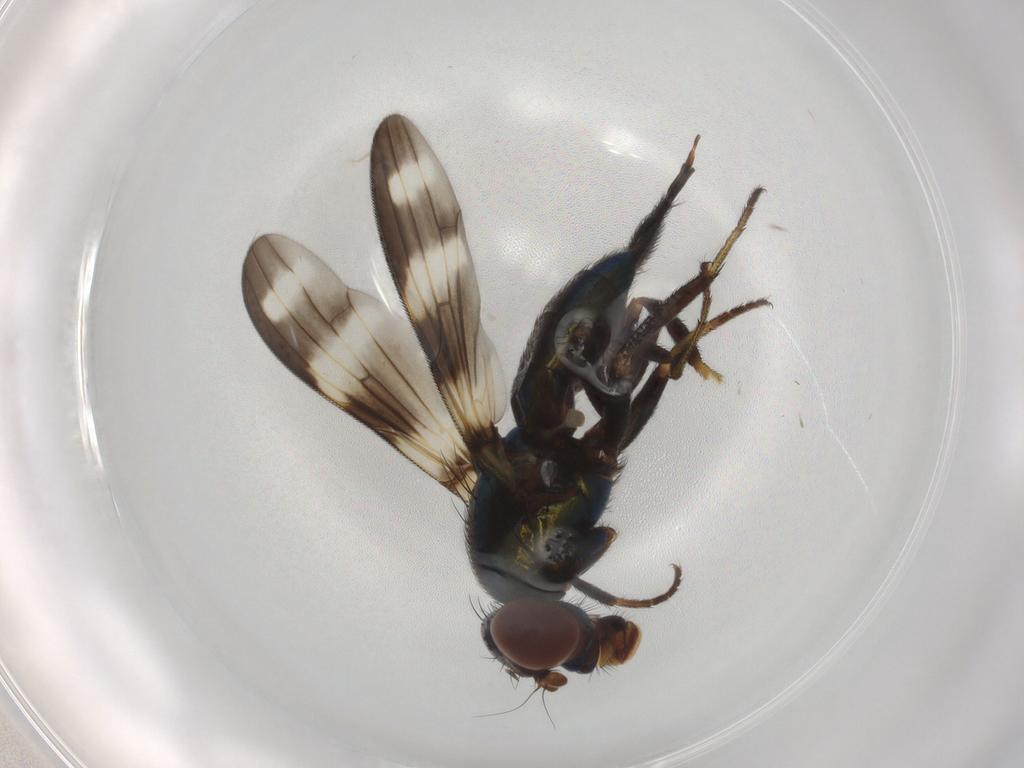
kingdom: Animalia
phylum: Arthropoda
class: Insecta
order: Diptera
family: Ulidiidae
